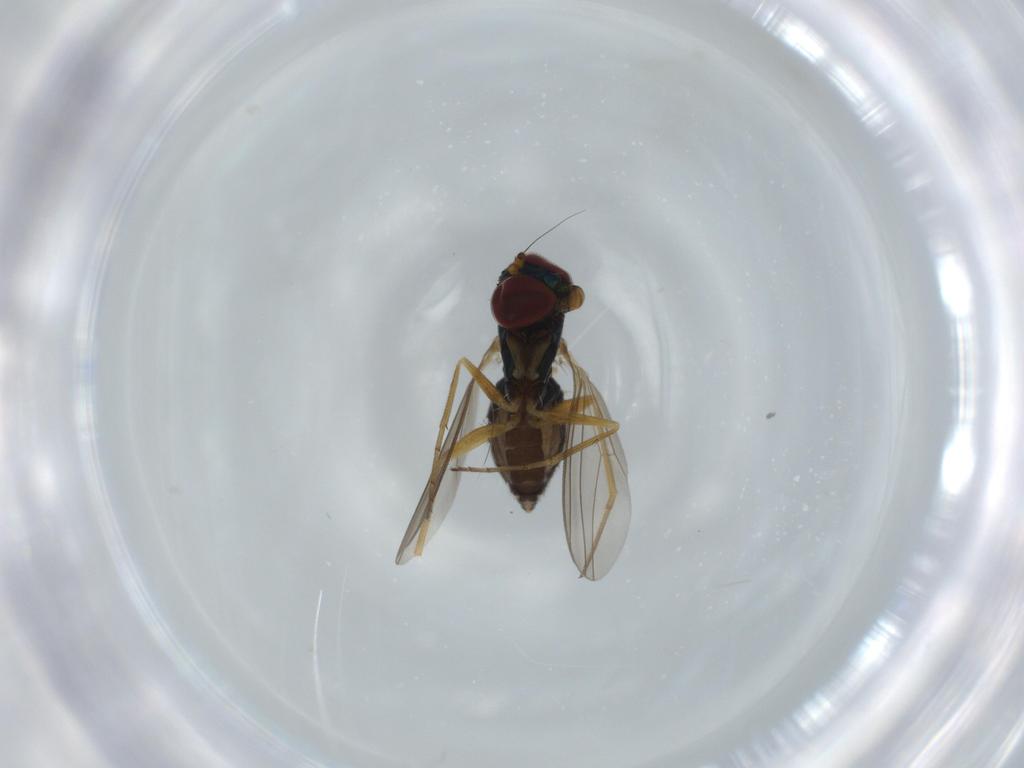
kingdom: Animalia
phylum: Arthropoda
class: Insecta
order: Diptera
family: Dolichopodidae
